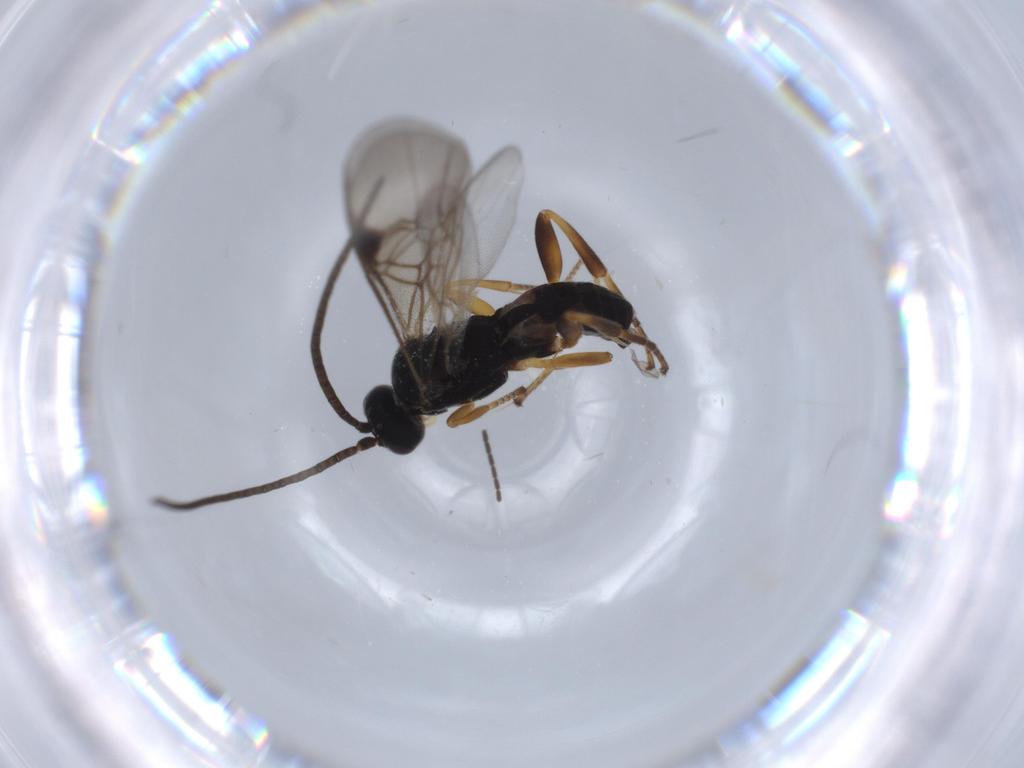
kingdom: Animalia
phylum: Arthropoda
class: Insecta
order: Hymenoptera
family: Braconidae
